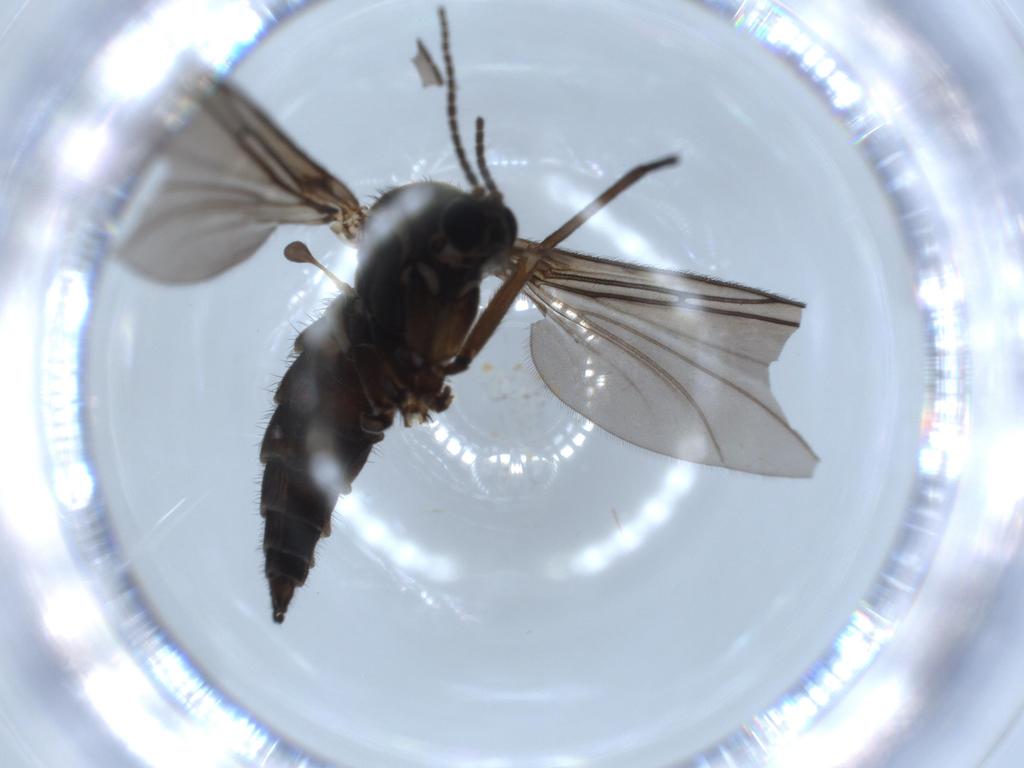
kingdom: Animalia
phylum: Arthropoda
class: Insecta
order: Diptera
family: Sciaridae
